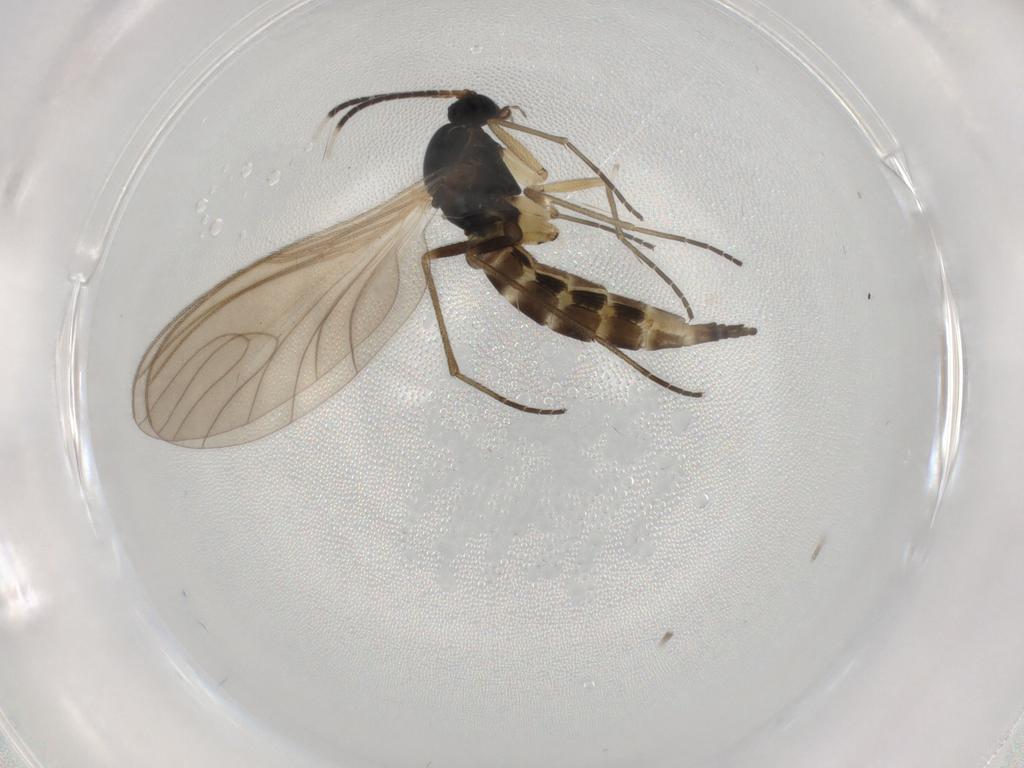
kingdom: Animalia
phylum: Arthropoda
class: Insecta
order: Diptera
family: Sciaridae
